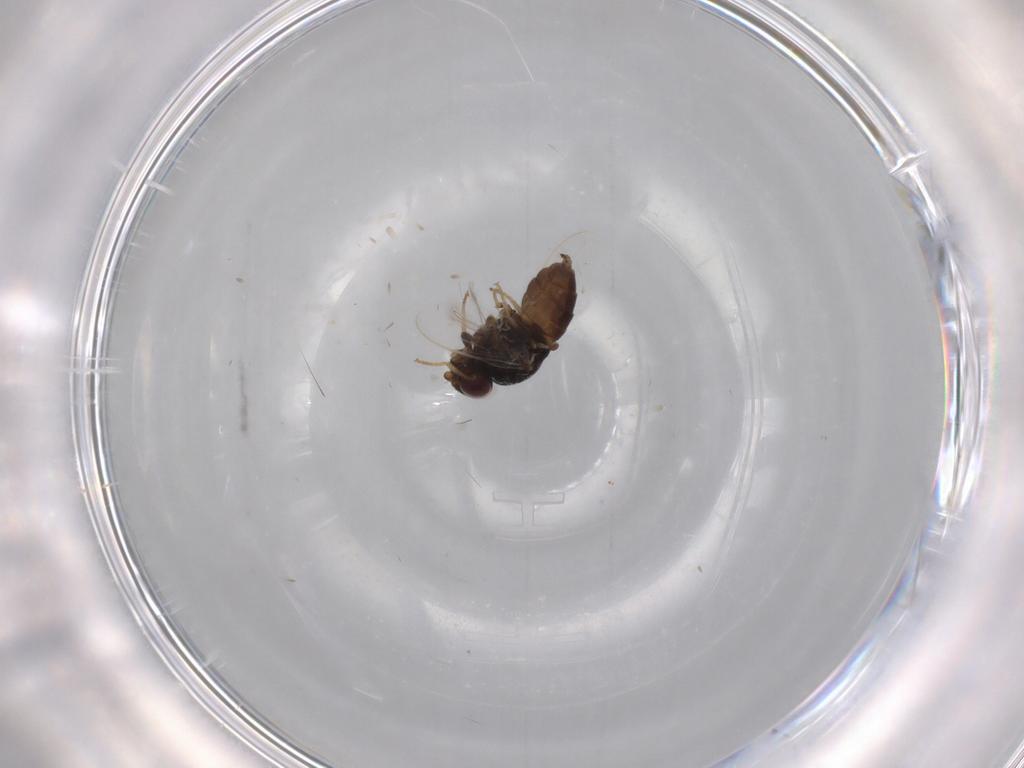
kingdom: Animalia
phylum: Arthropoda
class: Insecta
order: Diptera
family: Chloropidae
